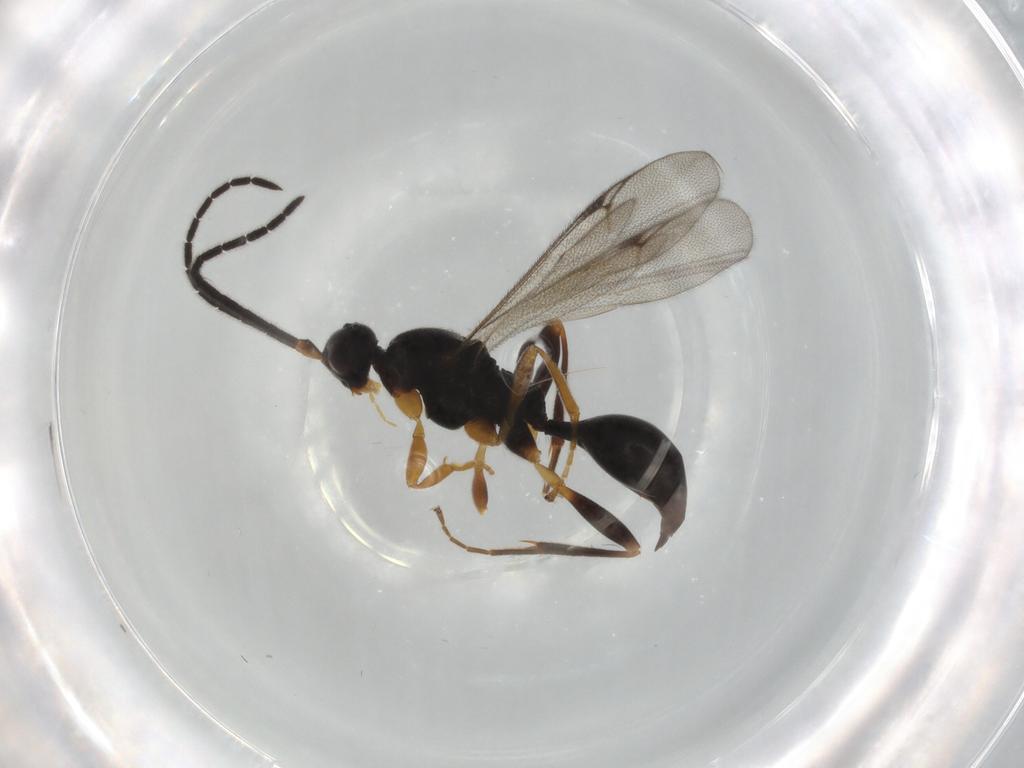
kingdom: Animalia
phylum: Arthropoda
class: Insecta
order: Hymenoptera
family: Proctotrupidae
